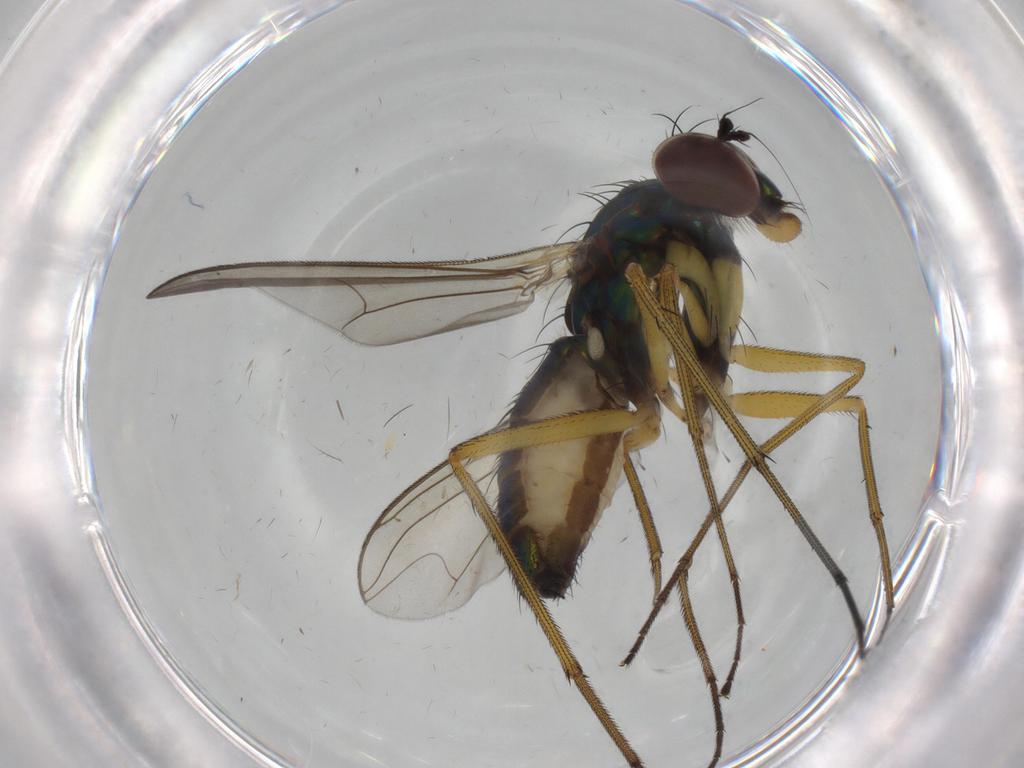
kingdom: Animalia
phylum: Arthropoda
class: Insecta
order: Diptera
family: Dolichopodidae
